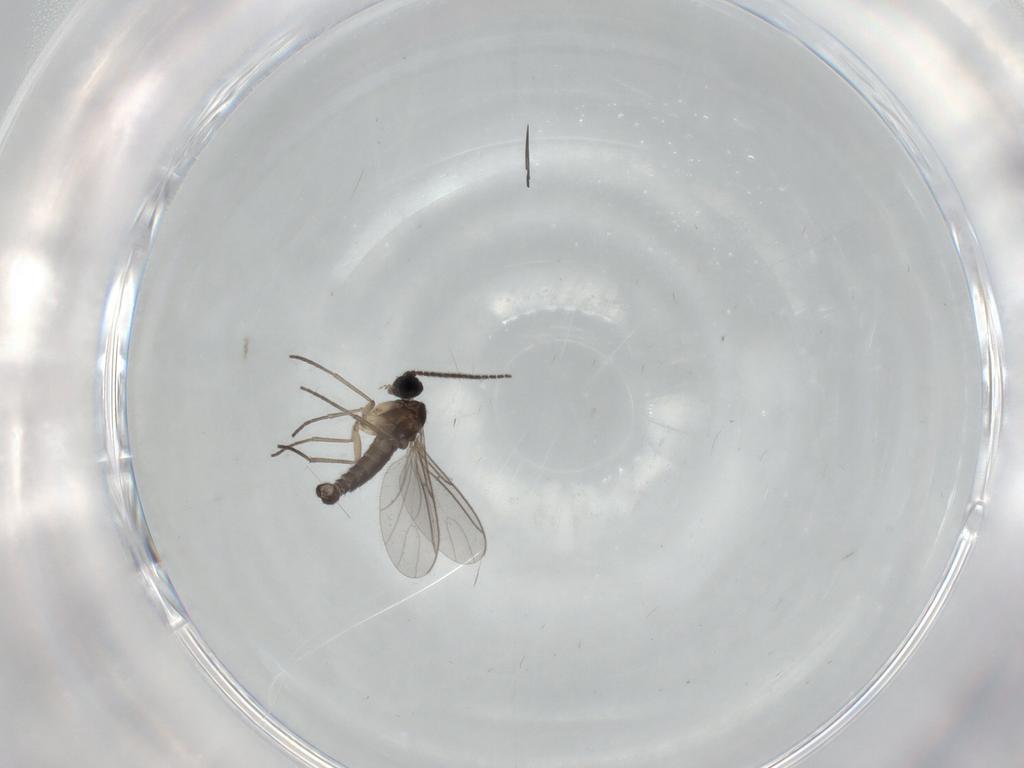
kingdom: Animalia
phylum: Arthropoda
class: Insecta
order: Diptera
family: Sciaridae
